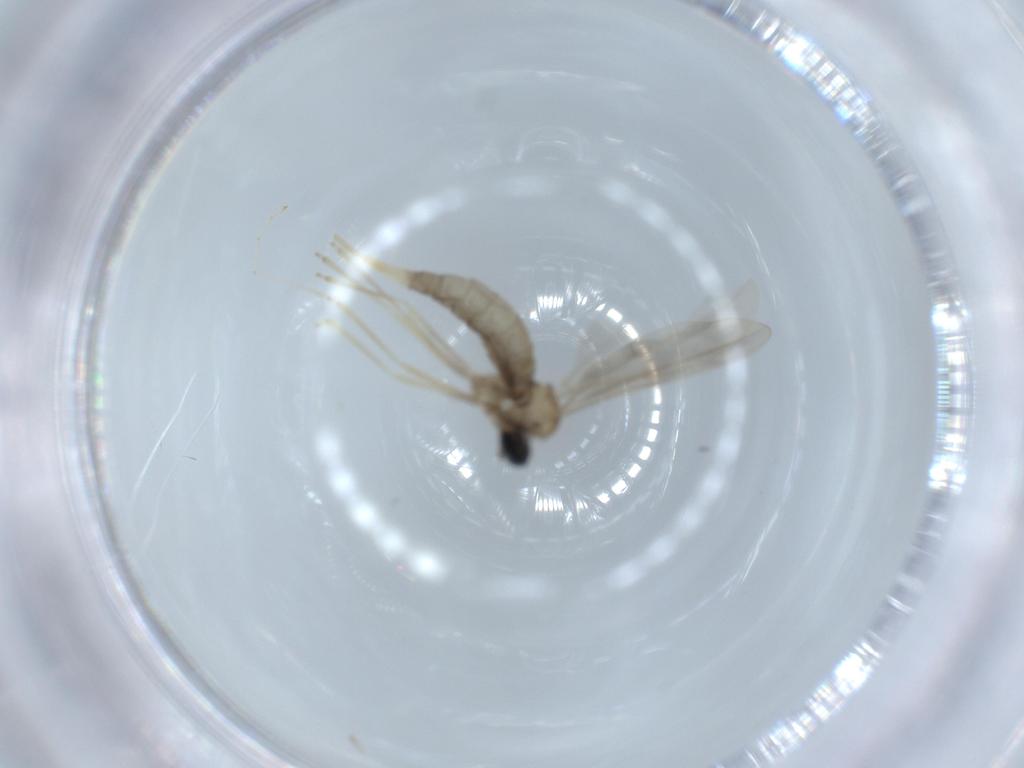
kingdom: Animalia
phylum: Arthropoda
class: Insecta
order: Diptera
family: Cecidomyiidae
